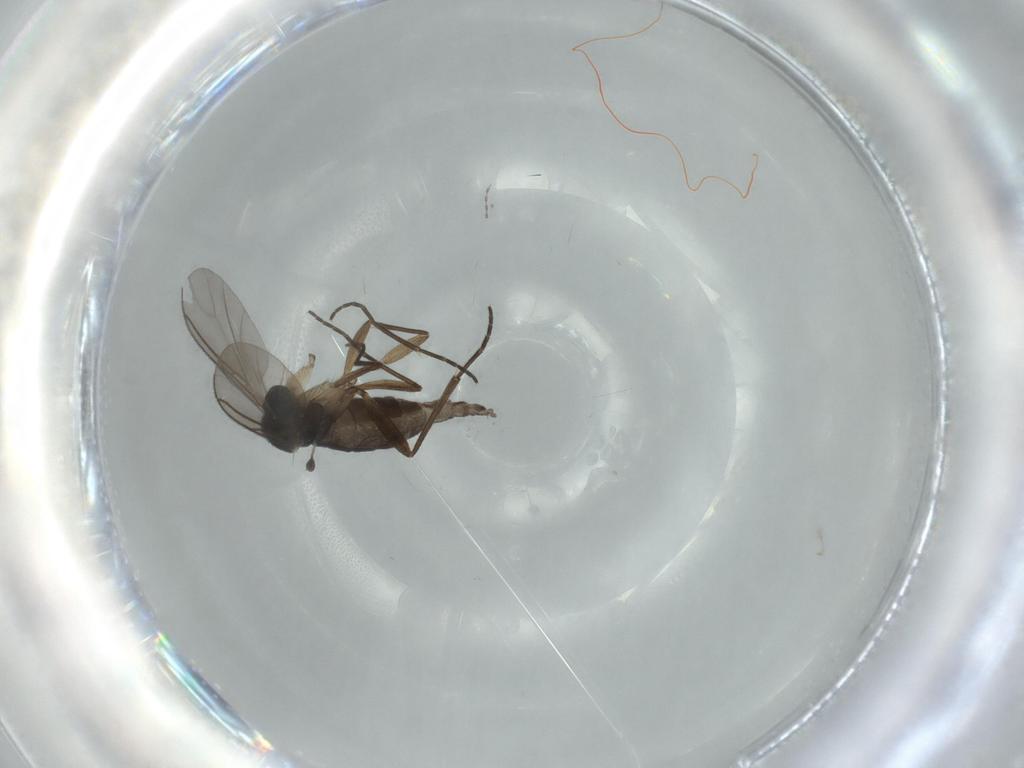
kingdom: Animalia
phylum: Arthropoda
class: Insecta
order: Diptera
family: Sciaridae
